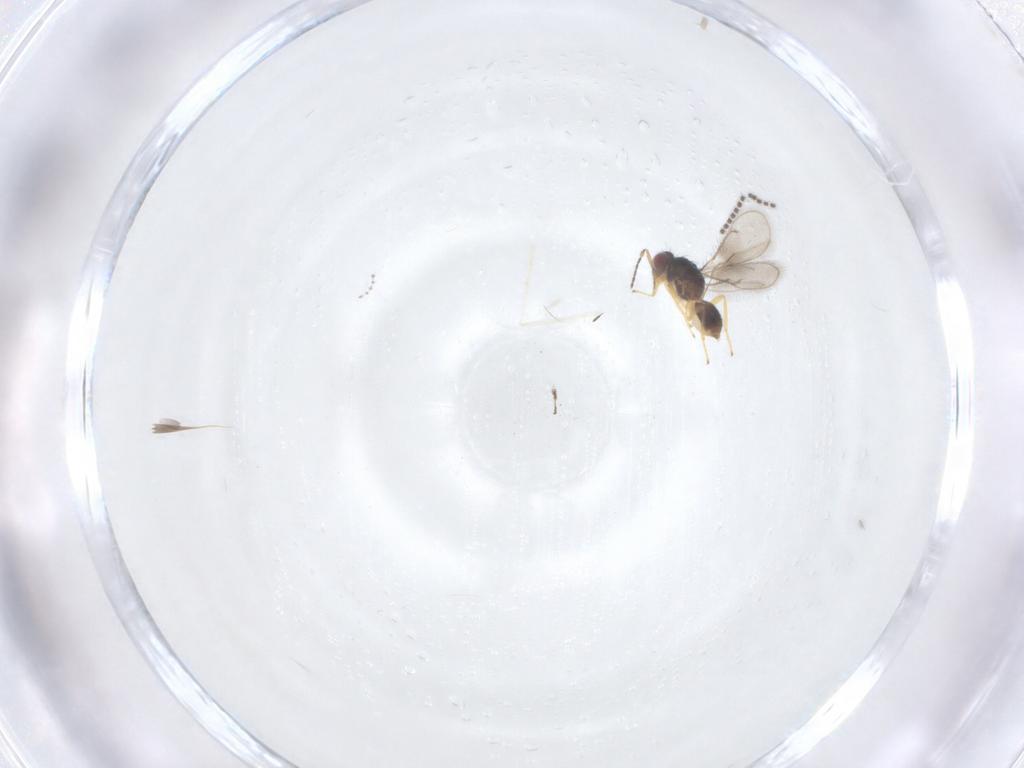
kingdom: Animalia
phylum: Arthropoda
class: Insecta
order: Hymenoptera
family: Eulophidae
